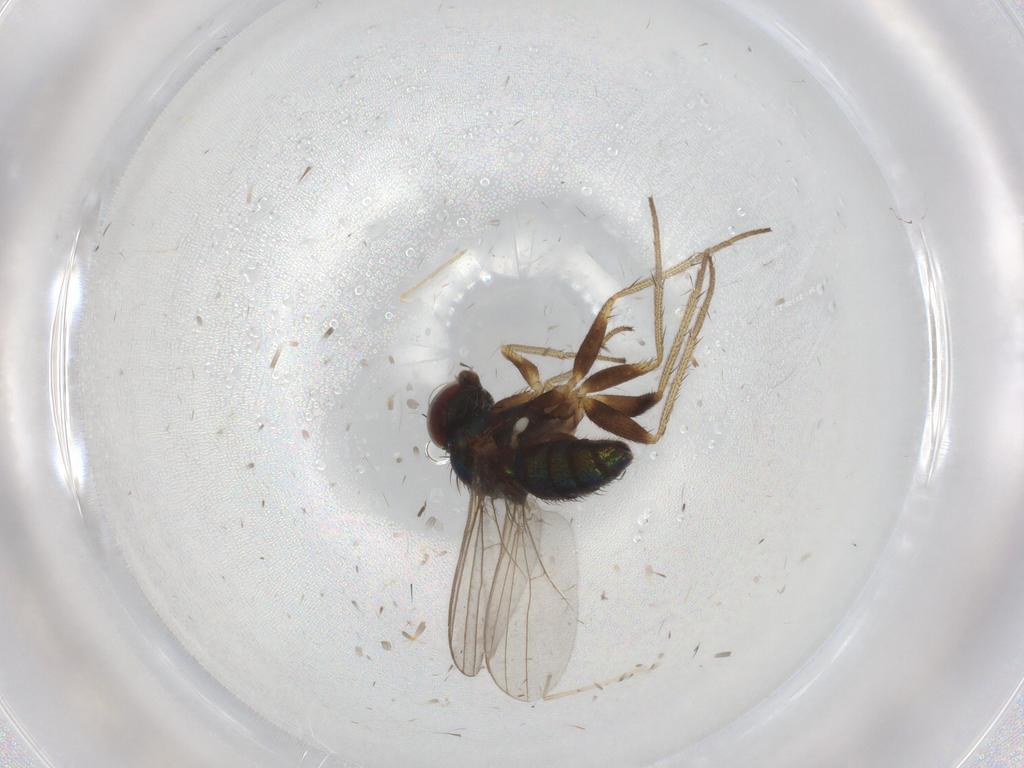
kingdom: Animalia
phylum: Arthropoda
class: Insecta
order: Diptera
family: Chironomidae
